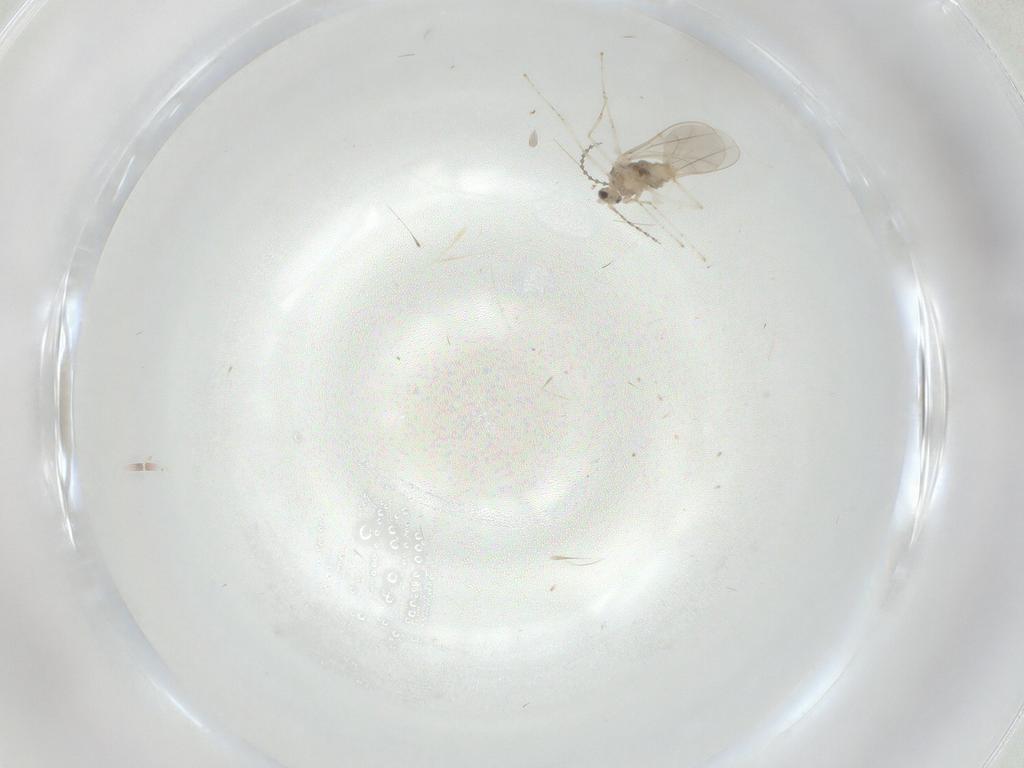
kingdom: Animalia
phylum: Arthropoda
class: Insecta
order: Diptera
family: Cecidomyiidae
